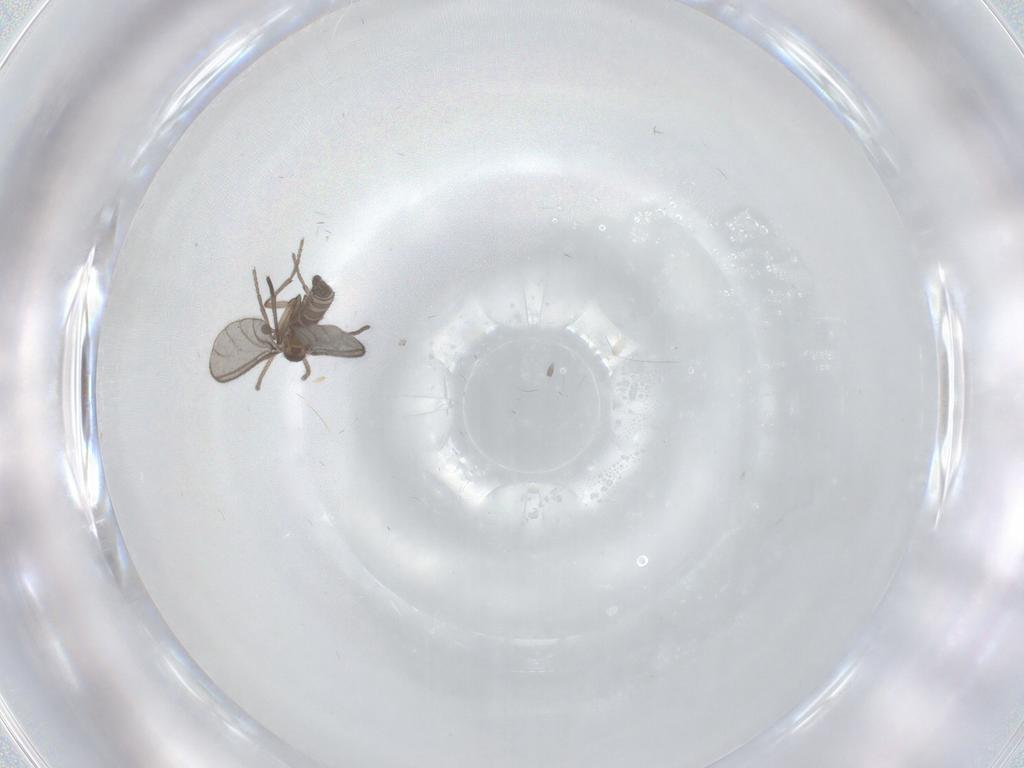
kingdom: Animalia
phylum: Arthropoda
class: Insecta
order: Diptera
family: Sciaridae
